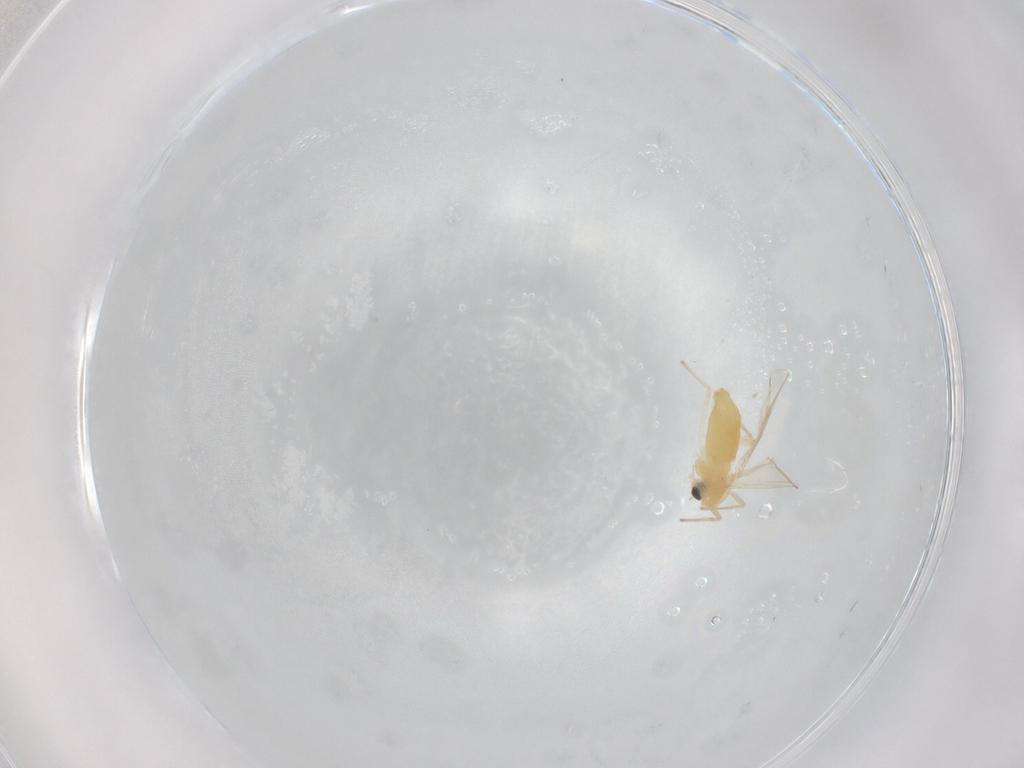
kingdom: Animalia
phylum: Arthropoda
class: Insecta
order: Diptera
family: Chironomidae
